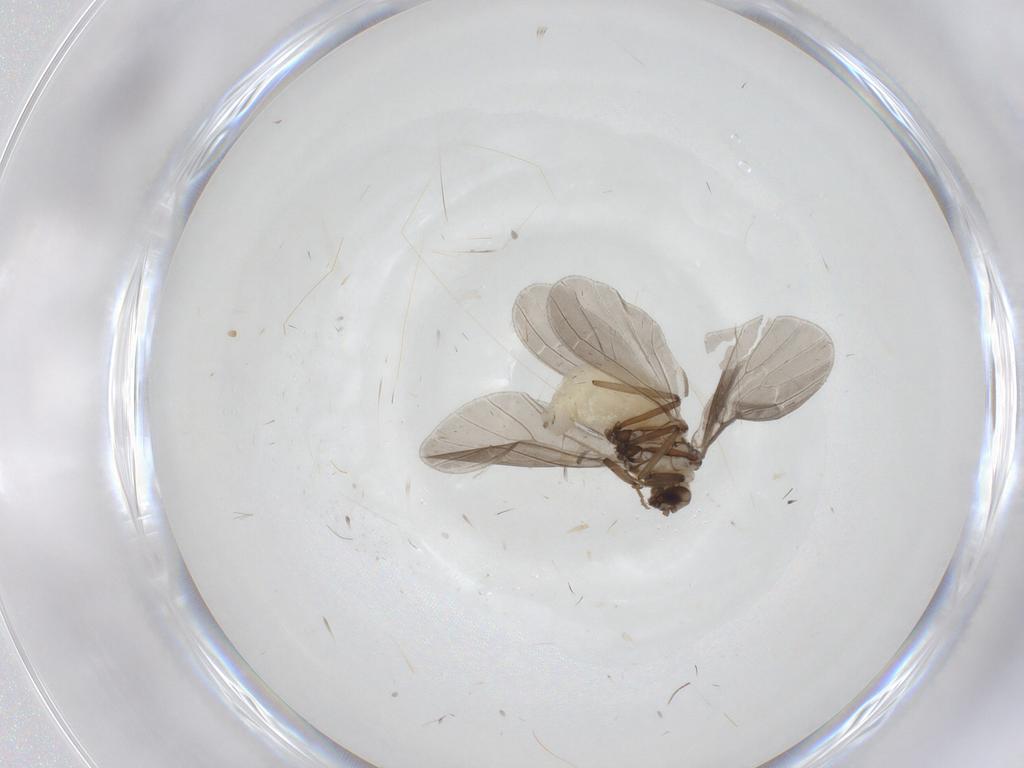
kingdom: Animalia
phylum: Arthropoda
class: Insecta
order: Neuroptera
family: Coniopterygidae
